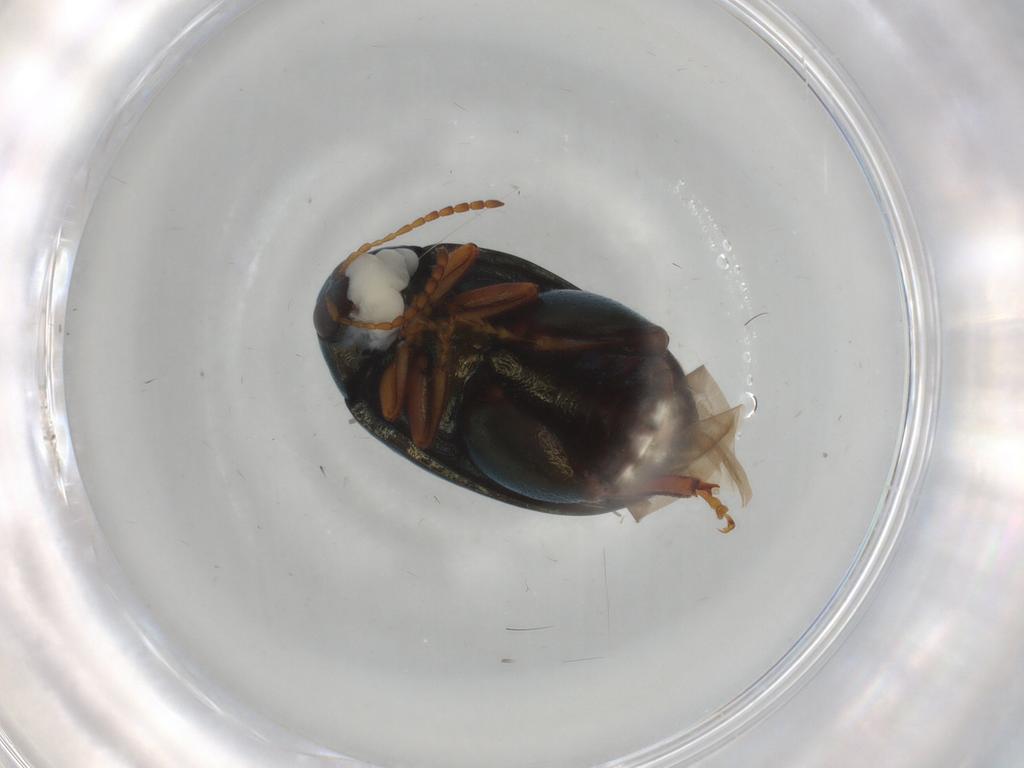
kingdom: Animalia
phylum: Arthropoda
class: Insecta
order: Coleoptera
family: Chrysomelidae
